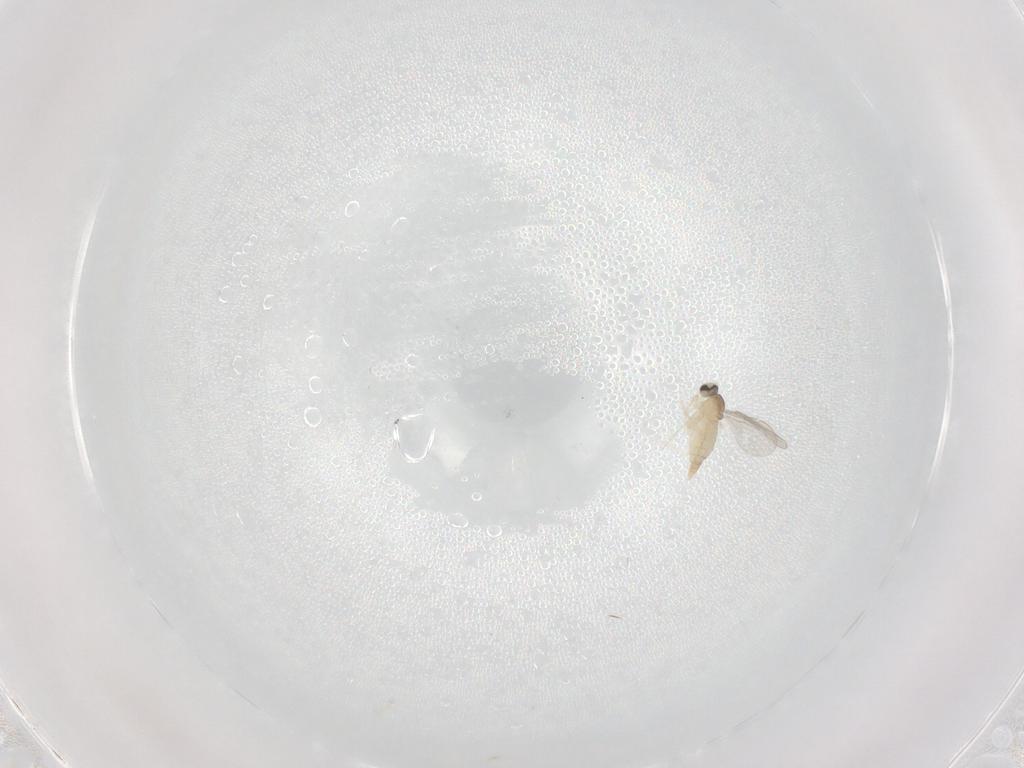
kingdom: Animalia
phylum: Arthropoda
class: Insecta
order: Diptera
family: Cecidomyiidae
